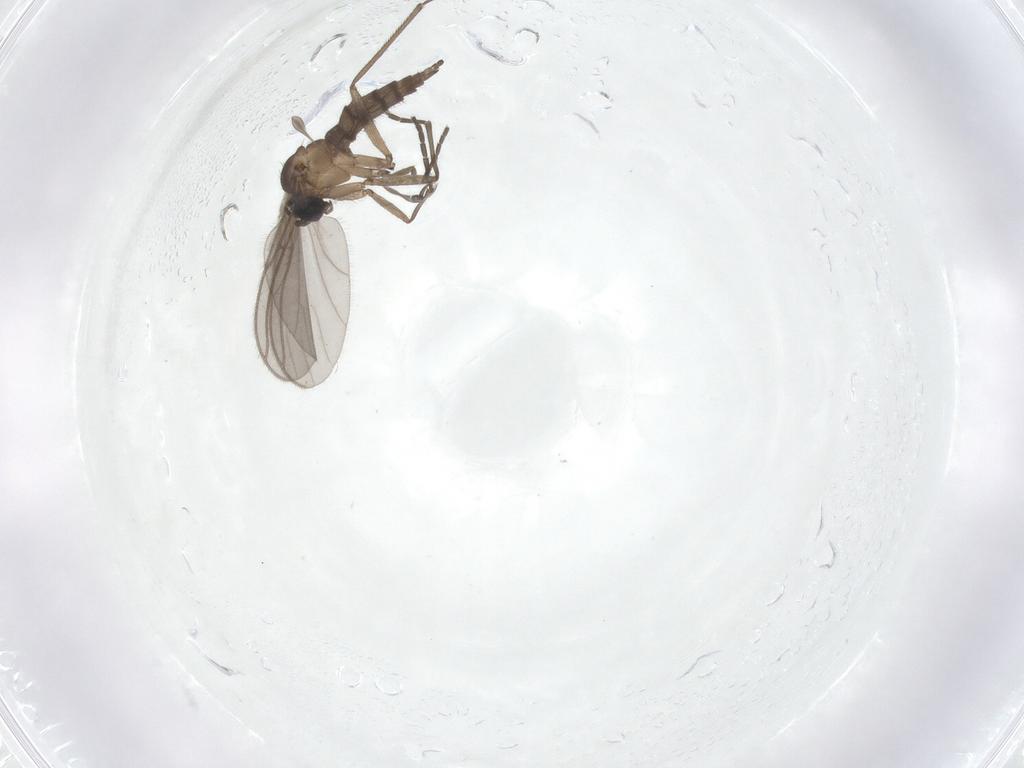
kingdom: Animalia
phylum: Arthropoda
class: Insecta
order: Diptera
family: Sciaridae
